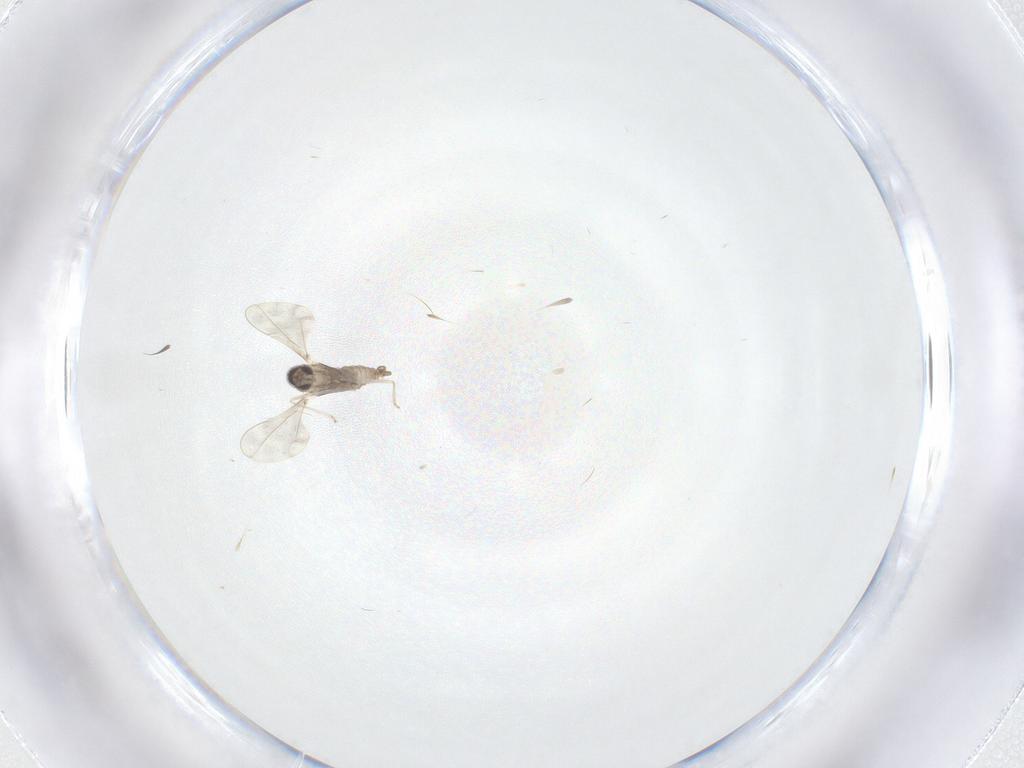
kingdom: Animalia
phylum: Arthropoda
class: Insecta
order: Diptera
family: Cecidomyiidae
